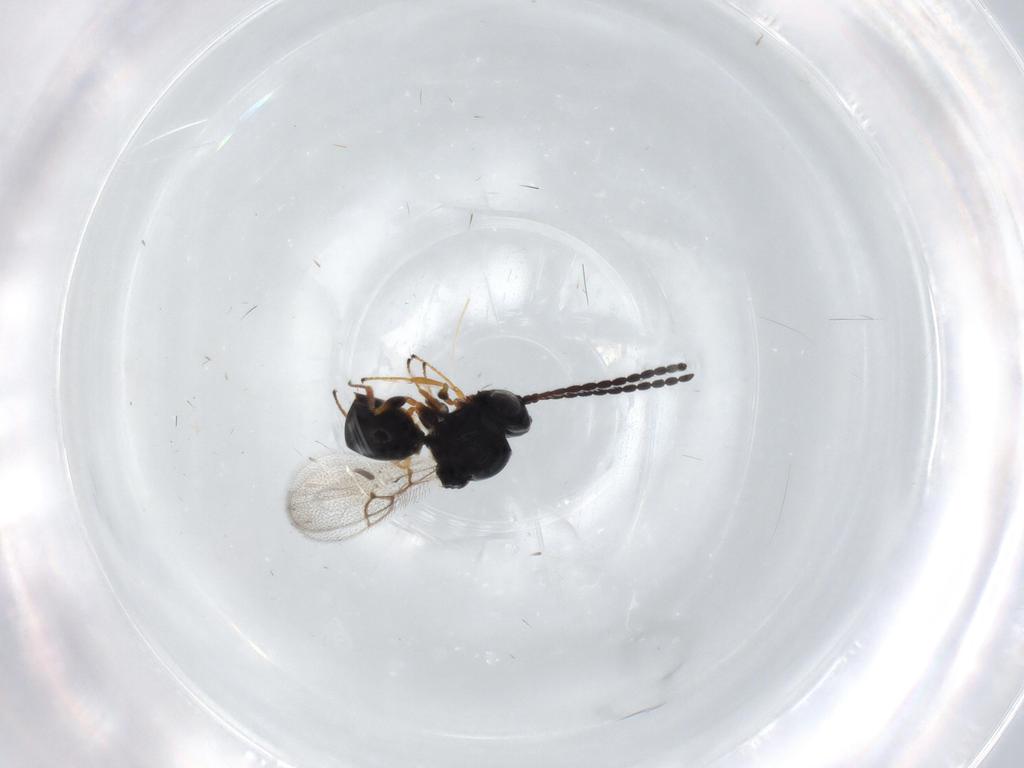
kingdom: Animalia
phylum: Arthropoda
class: Insecta
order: Hymenoptera
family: Figitidae
